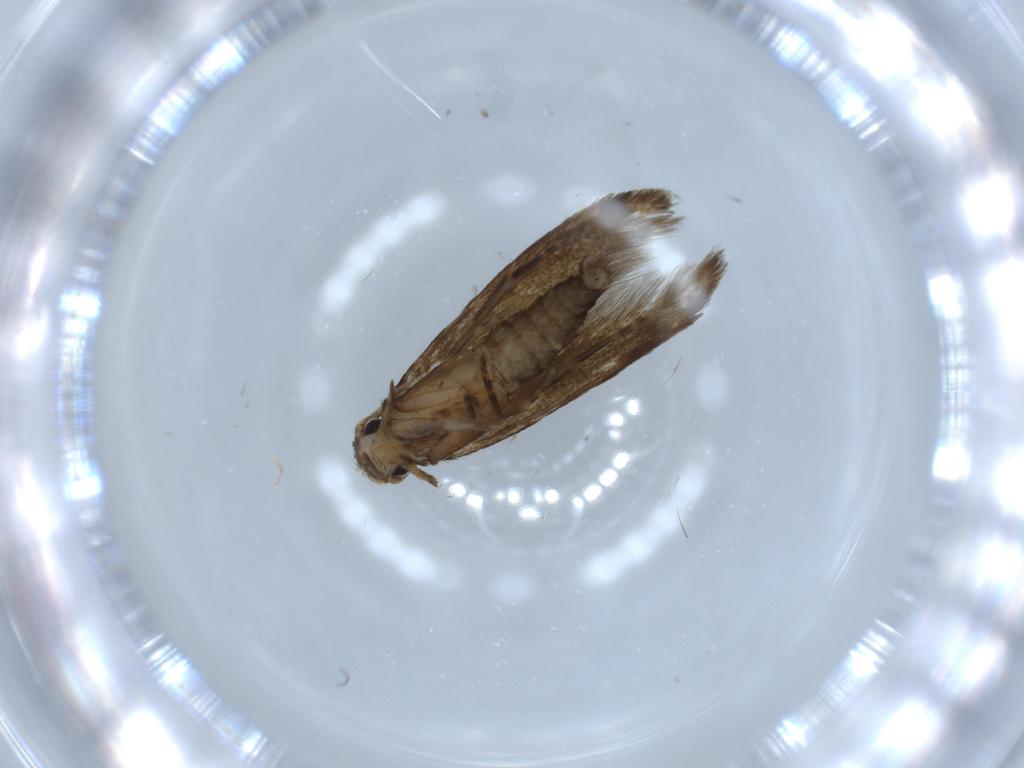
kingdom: Animalia
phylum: Arthropoda
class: Insecta
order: Lepidoptera
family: Tineidae
